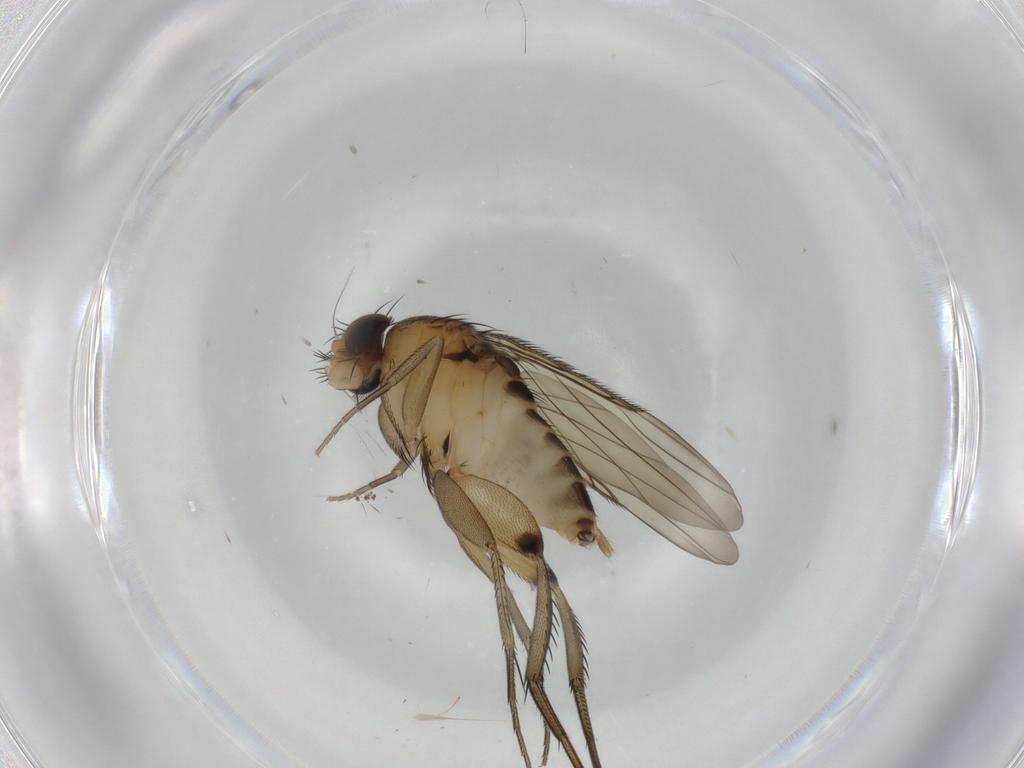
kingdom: Animalia
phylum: Arthropoda
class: Insecta
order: Diptera
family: Phoridae
